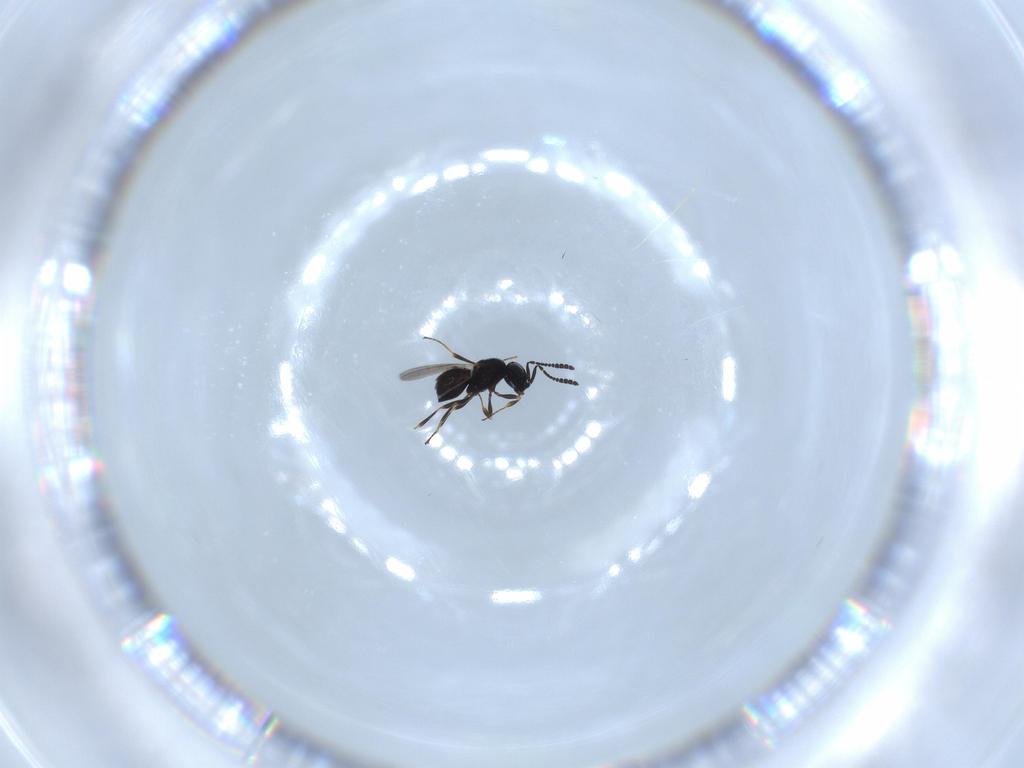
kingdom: Animalia
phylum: Arthropoda
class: Insecta
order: Hymenoptera
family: Scelionidae
